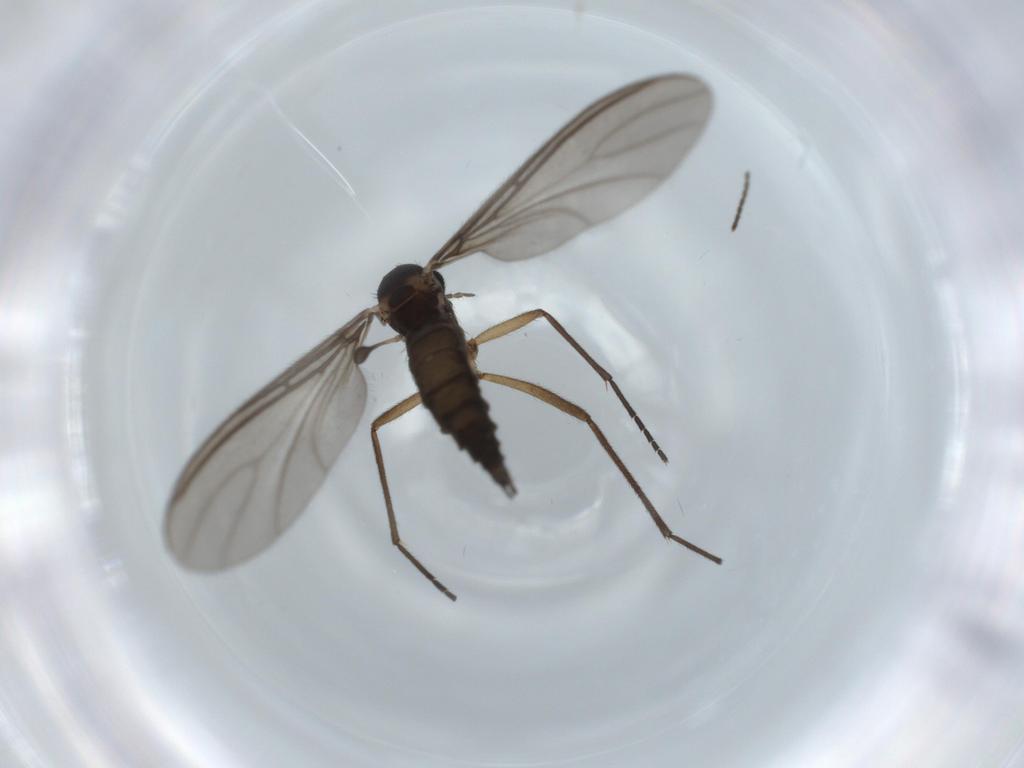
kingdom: Animalia
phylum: Arthropoda
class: Insecta
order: Diptera
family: Sciaridae
